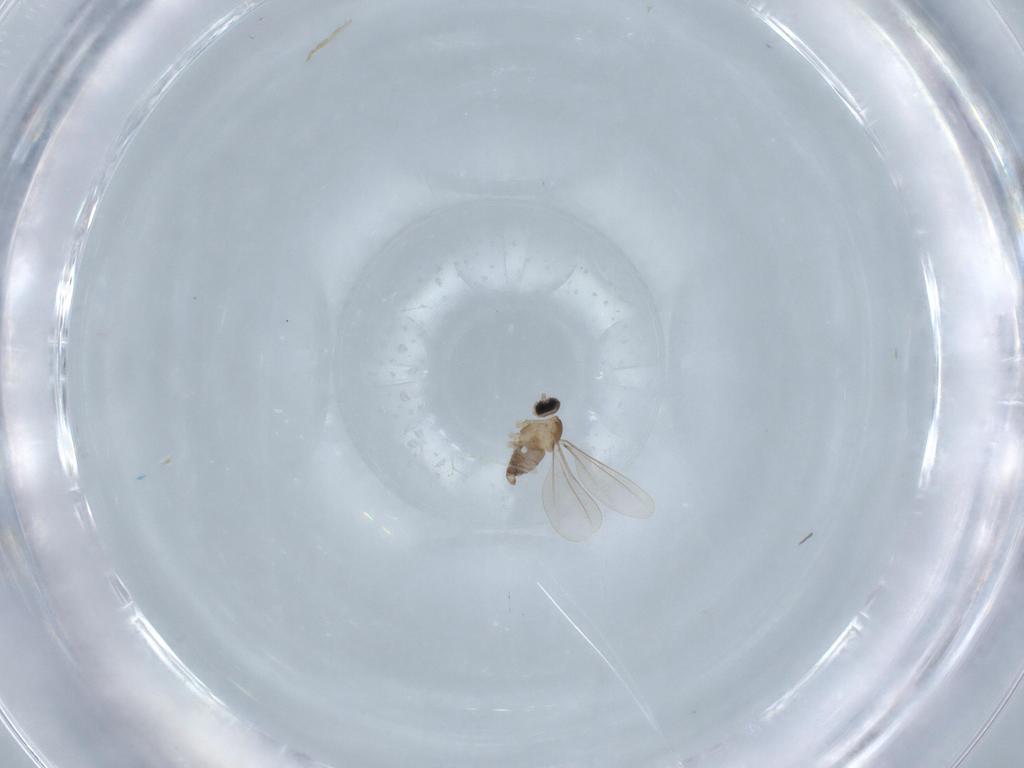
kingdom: Animalia
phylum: Arthropoda
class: Insecta
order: Diptera
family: Cecidomyiidae
